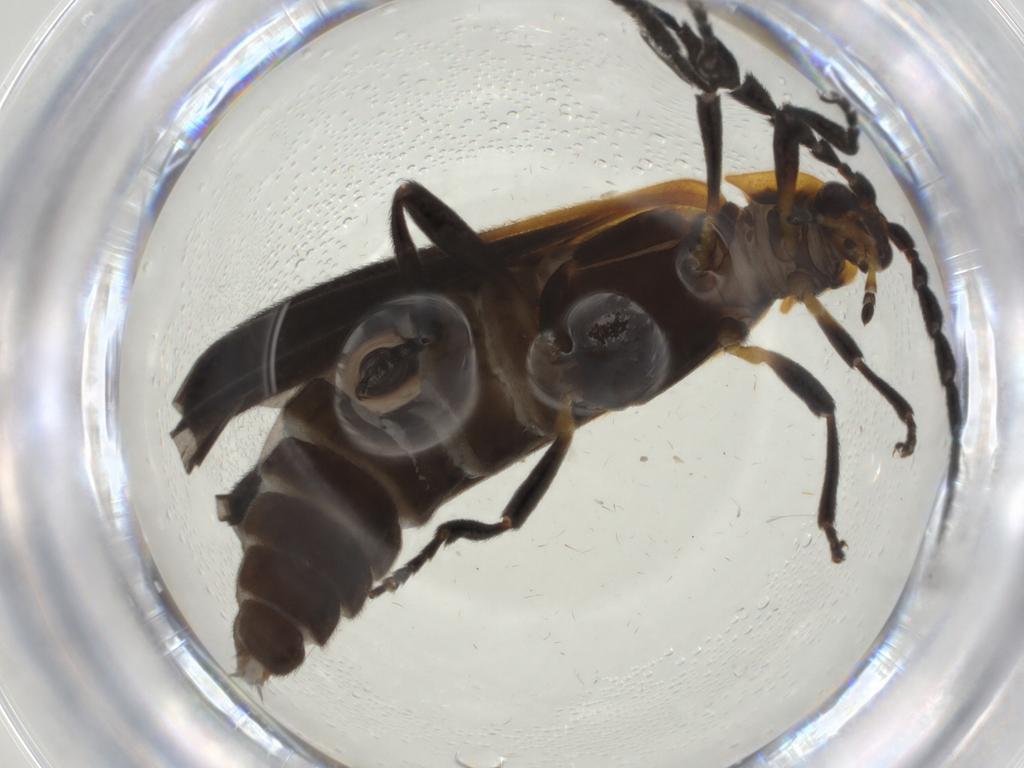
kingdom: Animalia
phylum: Arthropoda
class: Insecta
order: Coleoptera
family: Lycidae
